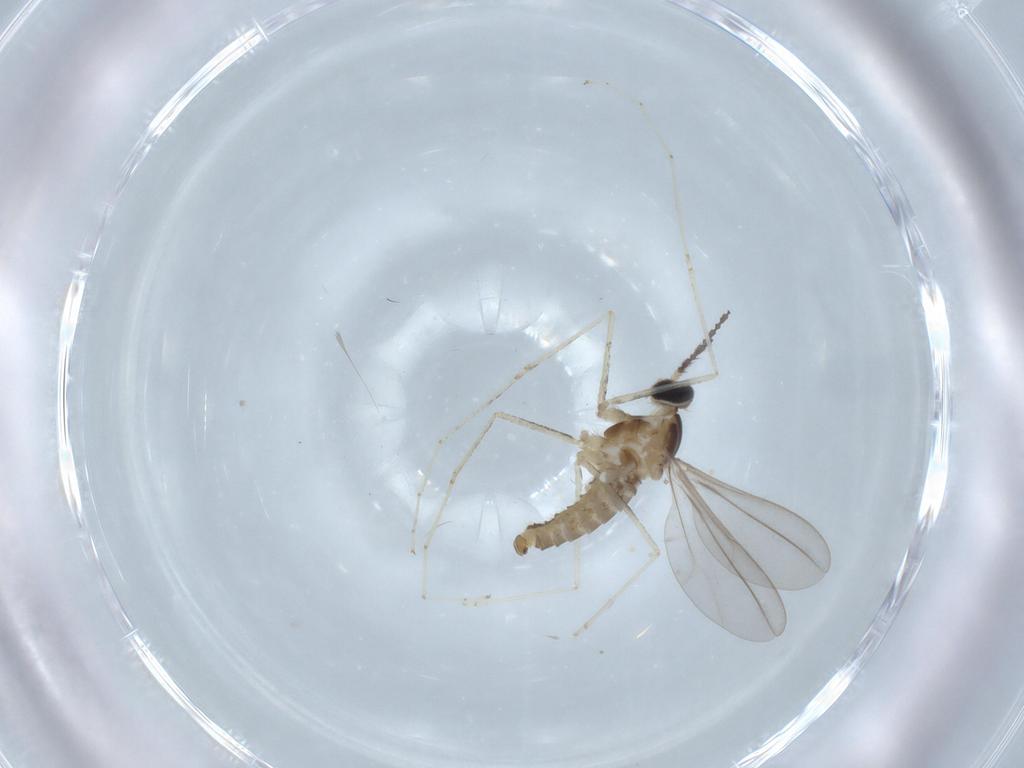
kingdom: Animalia
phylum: Arthropoda
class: Insecta
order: Diptera
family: Cecidomyiidae
